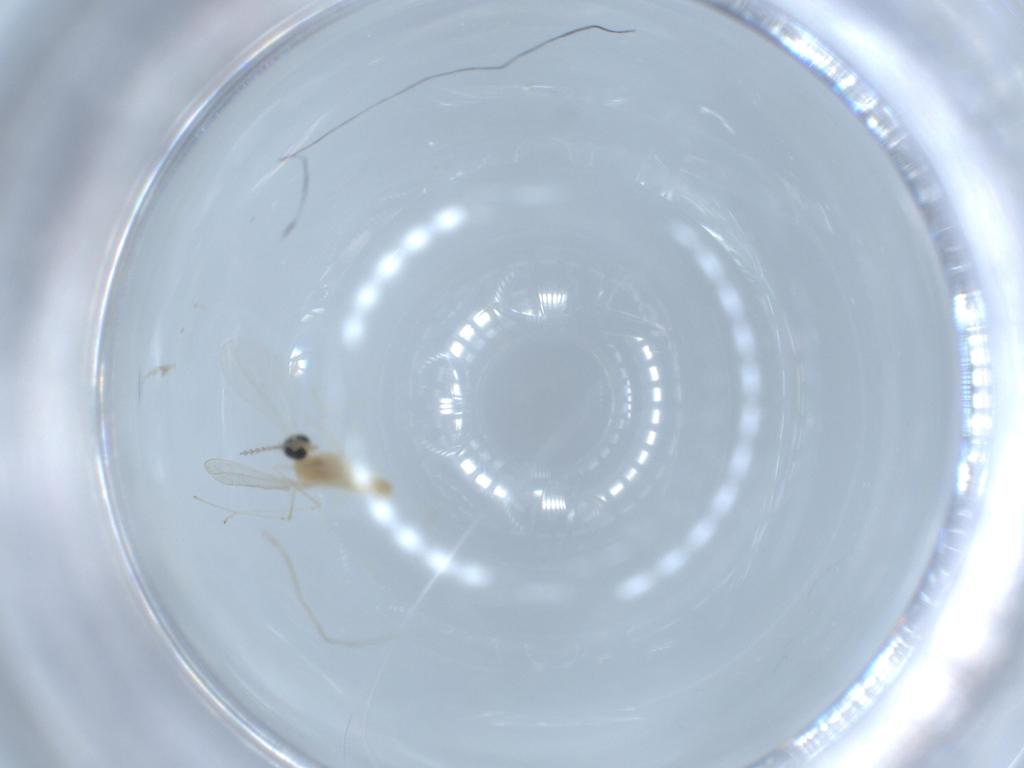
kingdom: Animalia
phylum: Arthropoda
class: Insecta
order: Diptera
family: Cecidomyiidae
